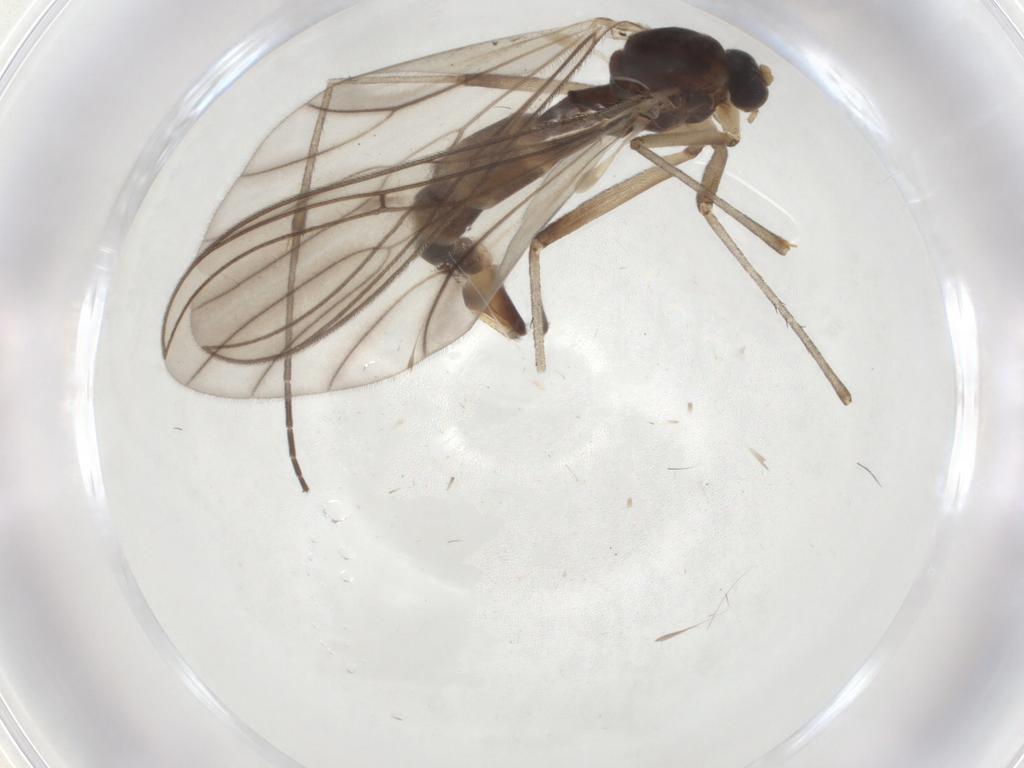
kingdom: Animalia
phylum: Arthropoda
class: Insecta
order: Diptera
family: Mycetophilidae
